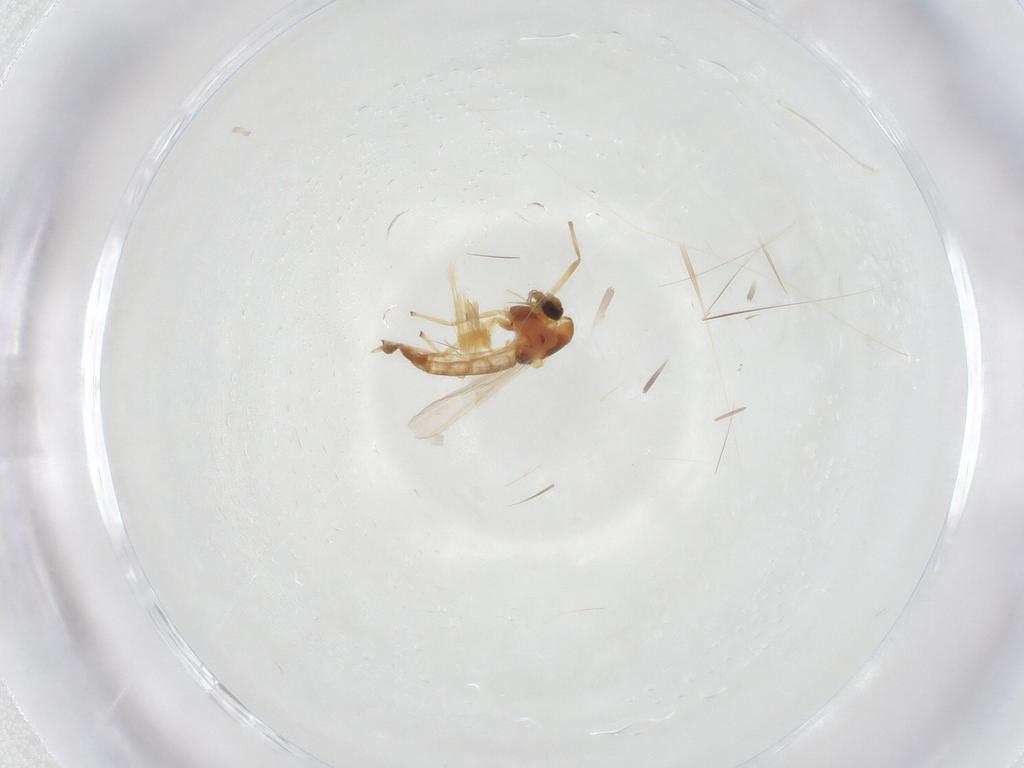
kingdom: Animalia
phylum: Arthropoda
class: Insecta
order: Diptera
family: Chironomidae
